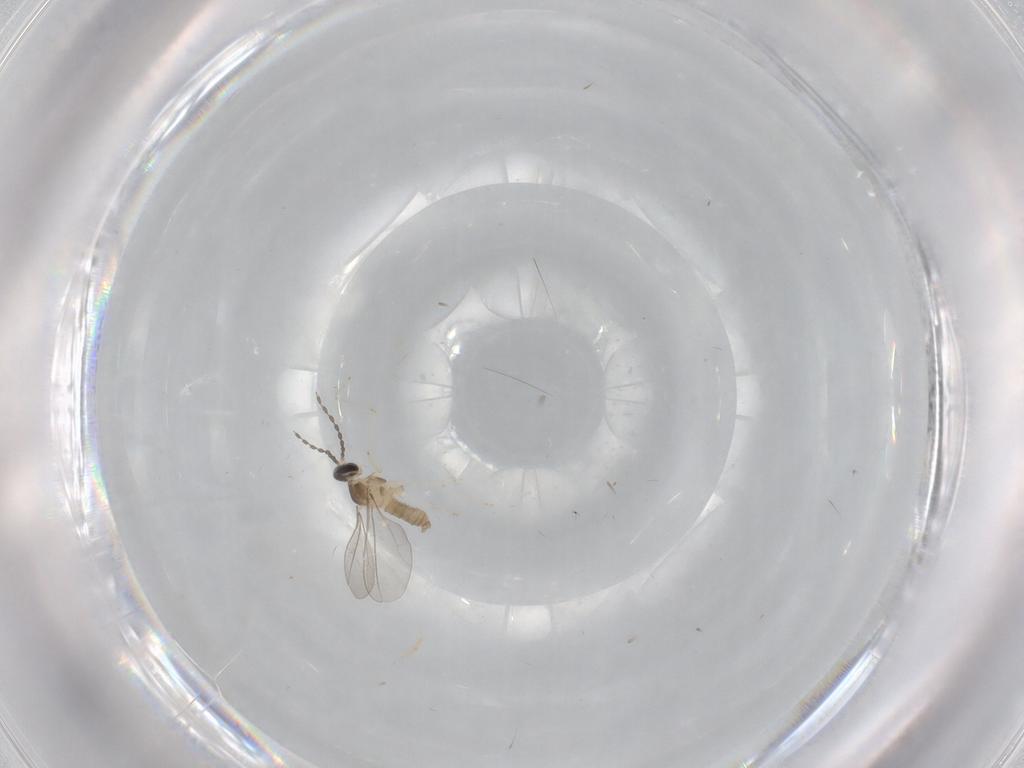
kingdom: Animalia
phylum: Arthropoda
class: Insecta
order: Diptera
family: Cecidomyiidae
